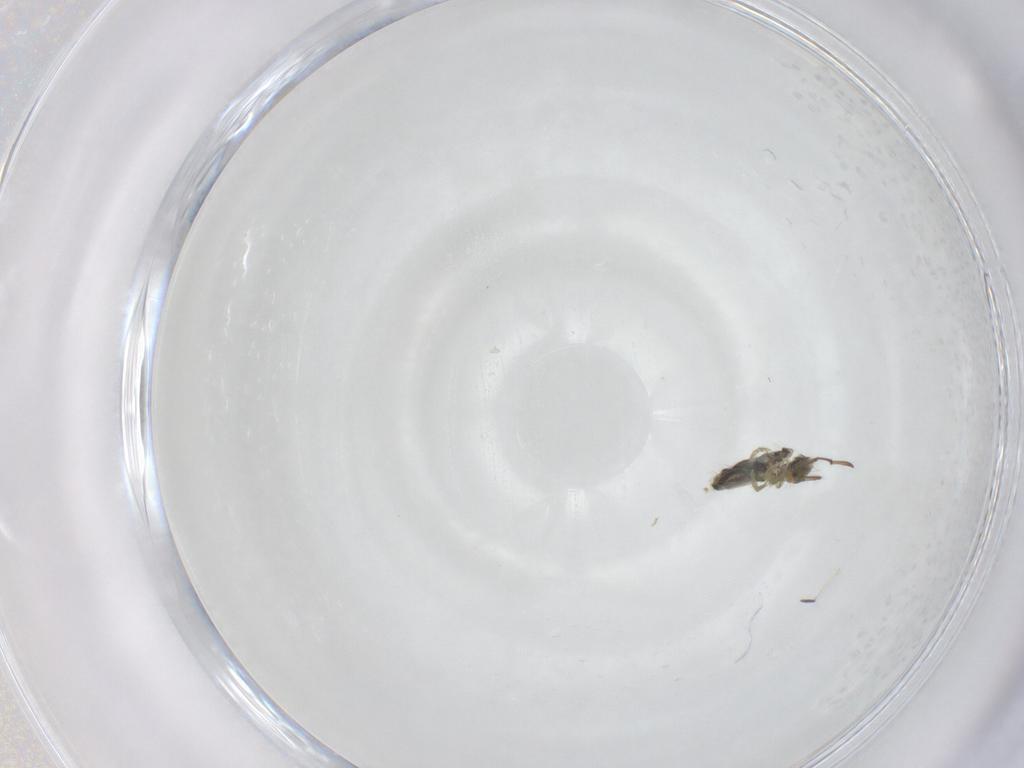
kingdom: Animalia
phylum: Arthropoda
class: Collembola
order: Entomobryomorpha
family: Entomobryidae
